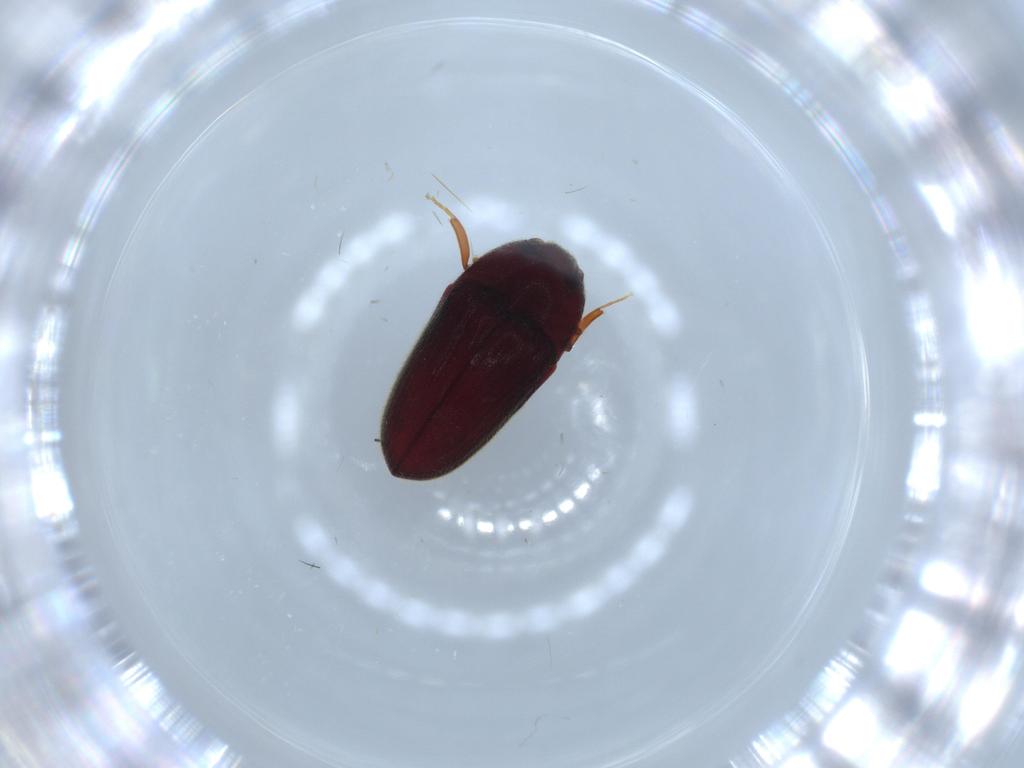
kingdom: Animalia
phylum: Arthropoda
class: Insecta
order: Coleoptera
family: Throscidae
